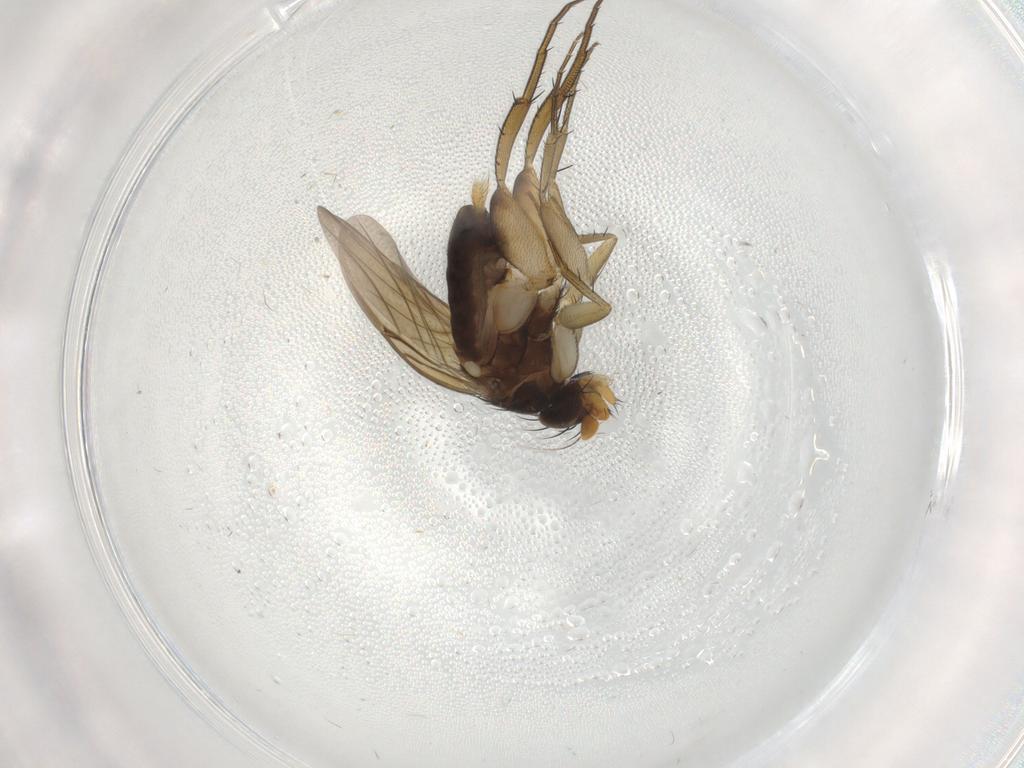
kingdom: Animalia
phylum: Arthropoda
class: Insecta
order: Diptera
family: Phoridae
